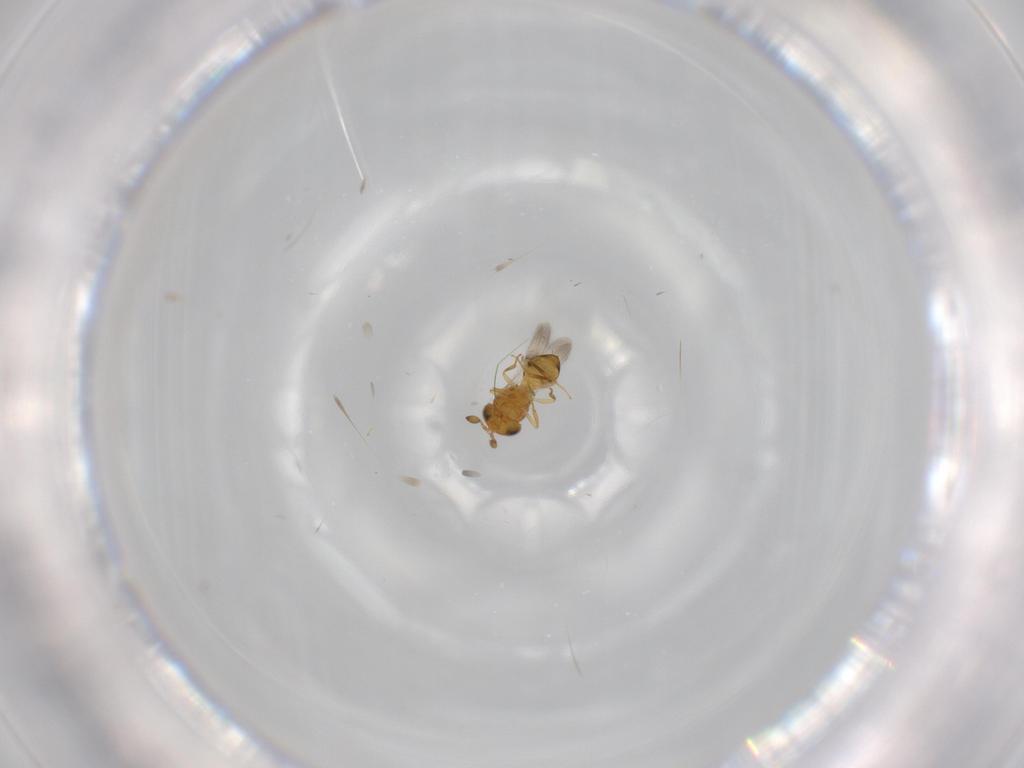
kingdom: Animalia
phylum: Arthropoda
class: Insecta
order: Hymenoptera
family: Scelionidae
